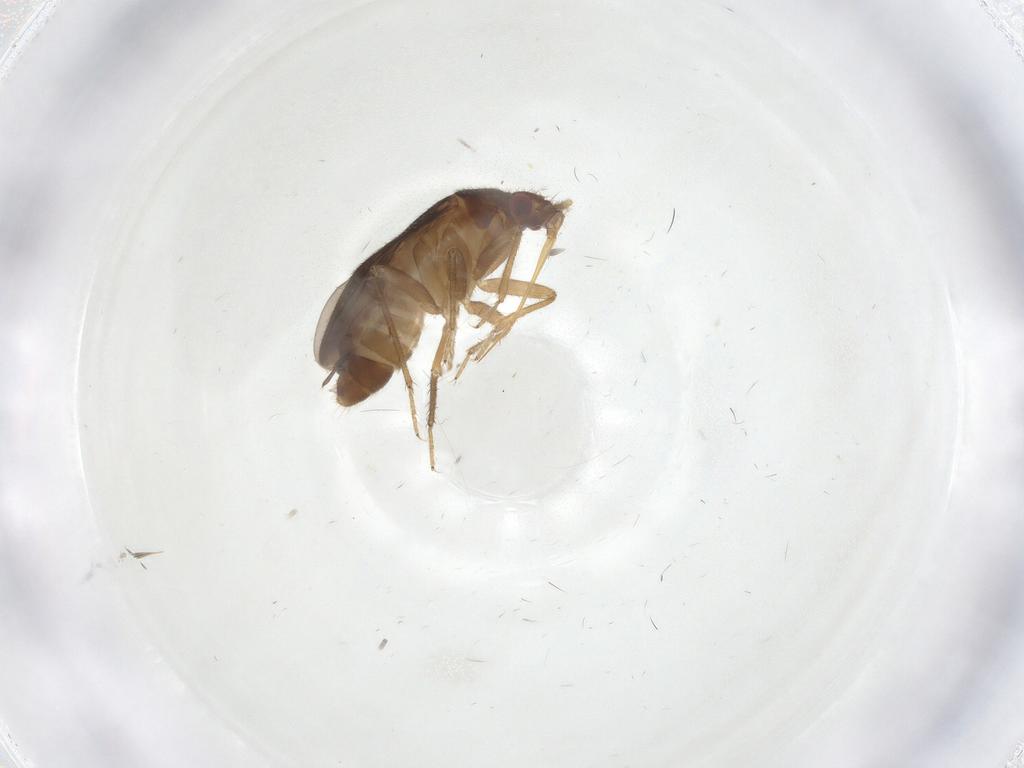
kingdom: Animalia
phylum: Arthropoda
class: Insecta
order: Hemiptera
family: Ceratocombidae
